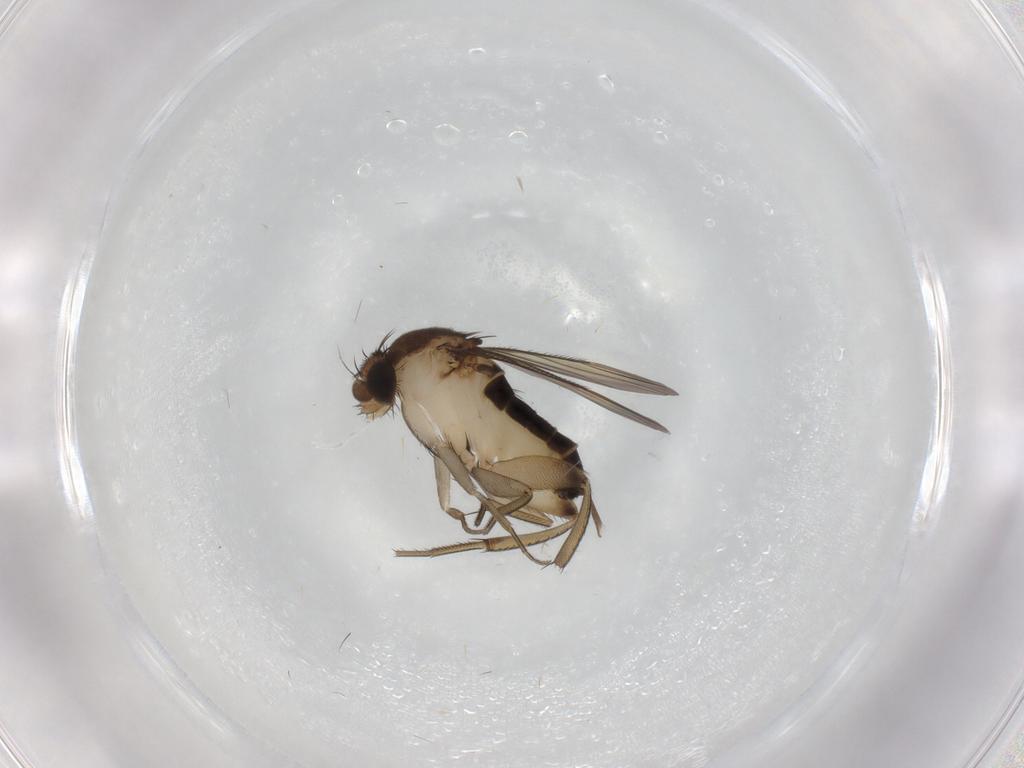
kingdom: Animalia
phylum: Arthropoda
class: Insecta
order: Diptera
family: Phoridae
